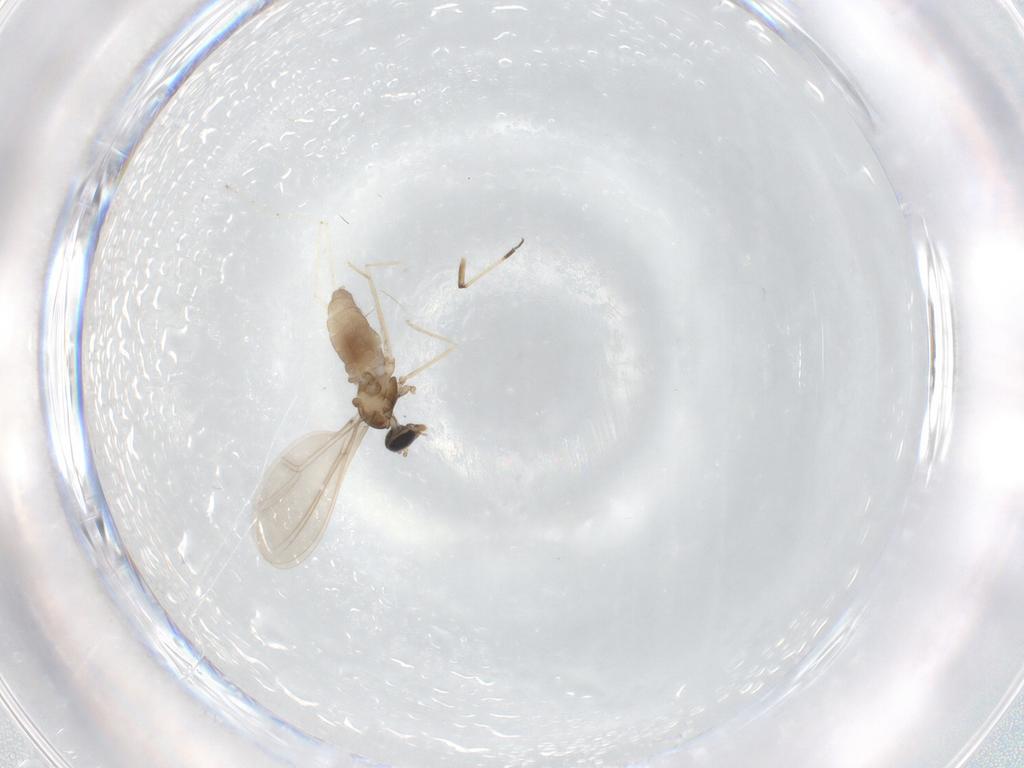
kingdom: Animalia
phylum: Arthropoda
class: Insecta
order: Diptera
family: Cecidomyiidae
